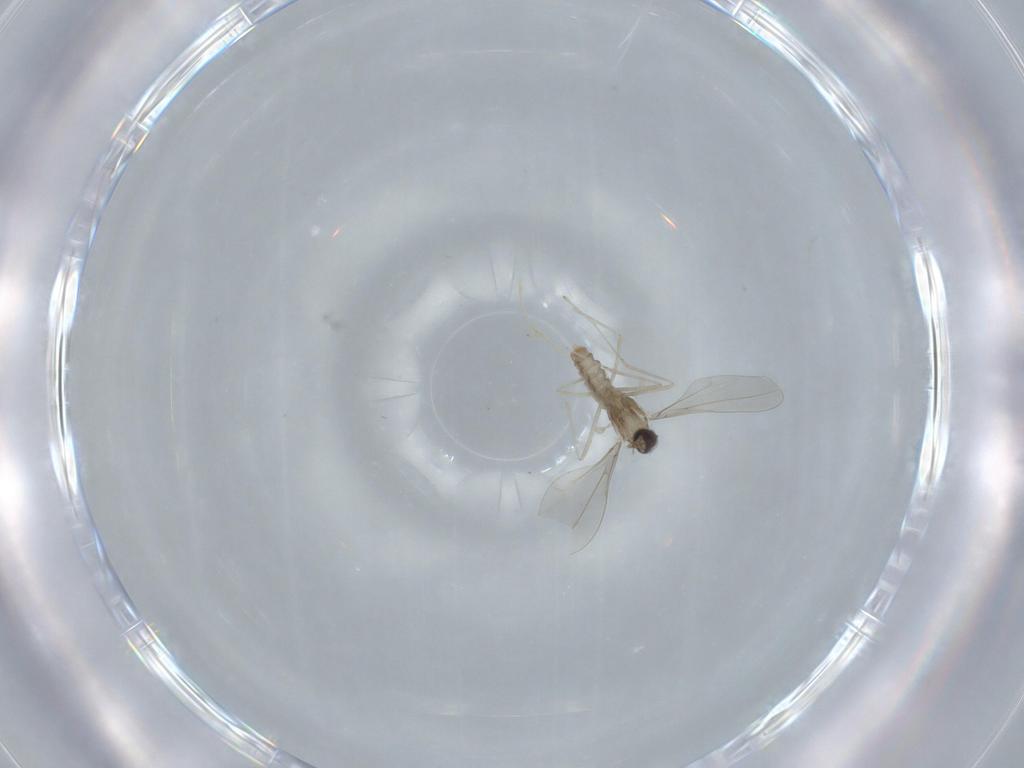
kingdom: Animalia
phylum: Arthropoda
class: Insecta
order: Diptera
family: Cecidomyiidae
